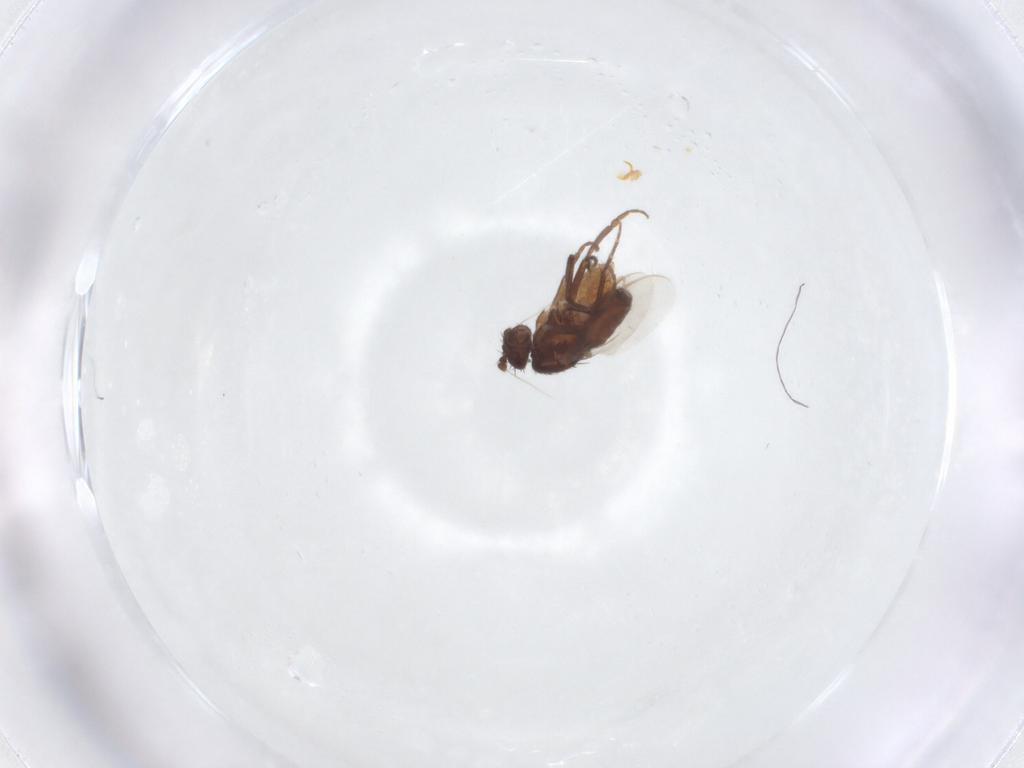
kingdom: Animalia
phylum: Arthropoda
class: Insecta
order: Diptera
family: Sphaeroceridae
